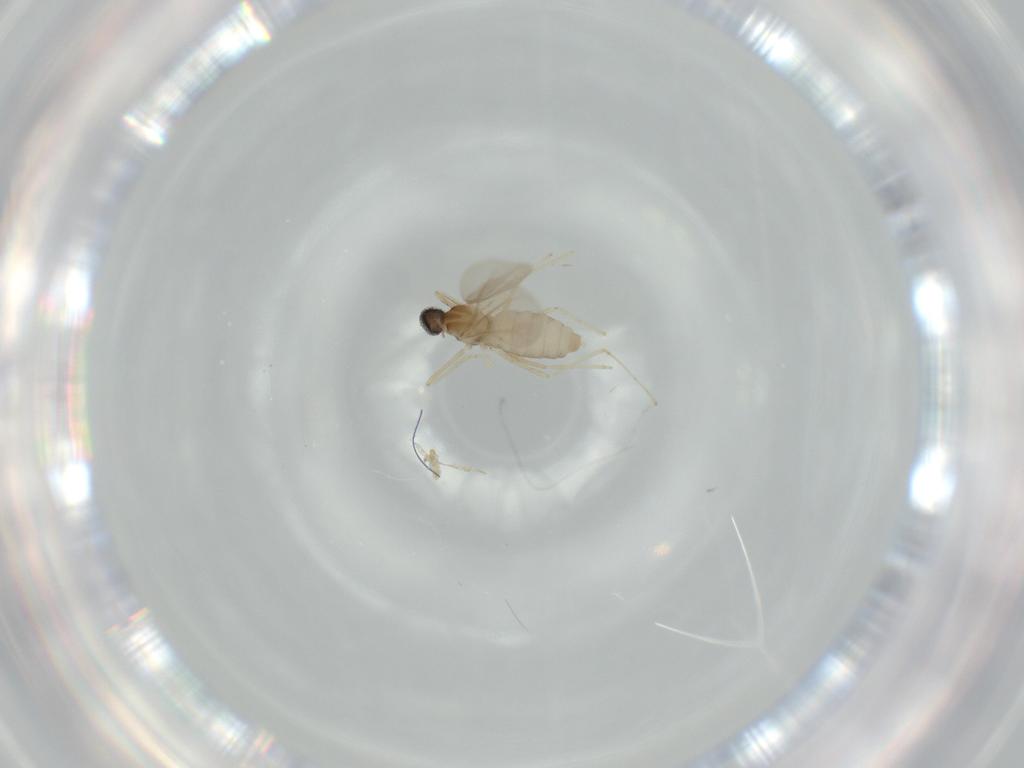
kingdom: Animalia
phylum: Arthropoda
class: Insecta
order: Diptera
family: Cecidomyiidae
